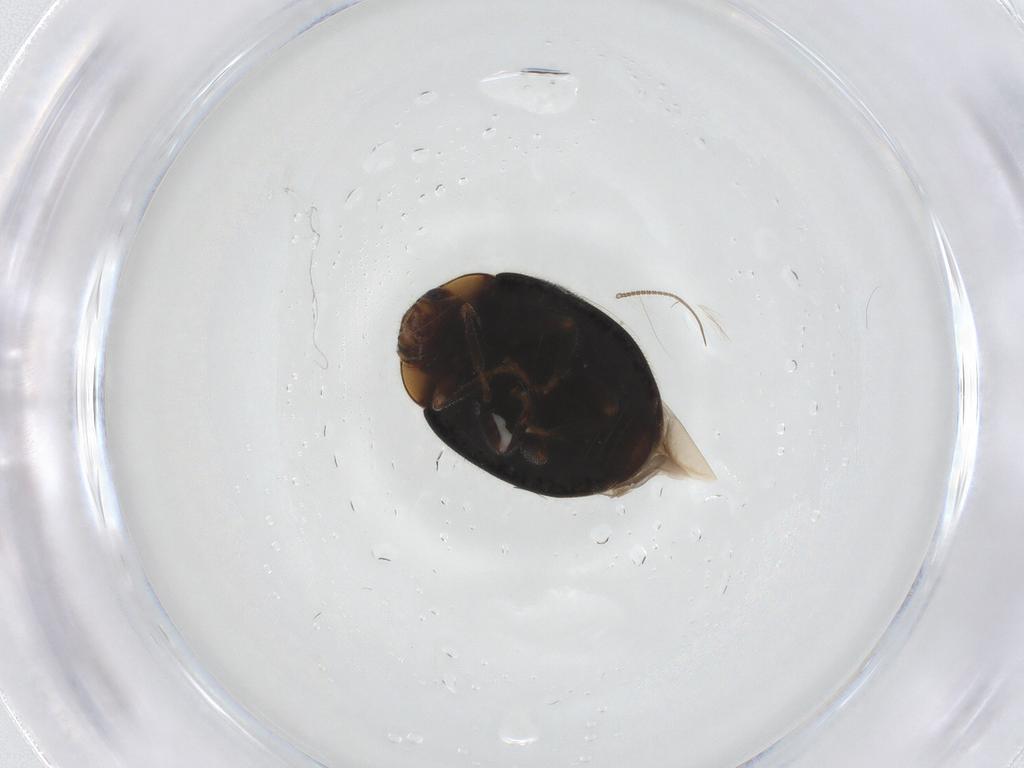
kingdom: Animalia
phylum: Arthropoda
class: Insecta
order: Coleoptera
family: Coccinellidae
